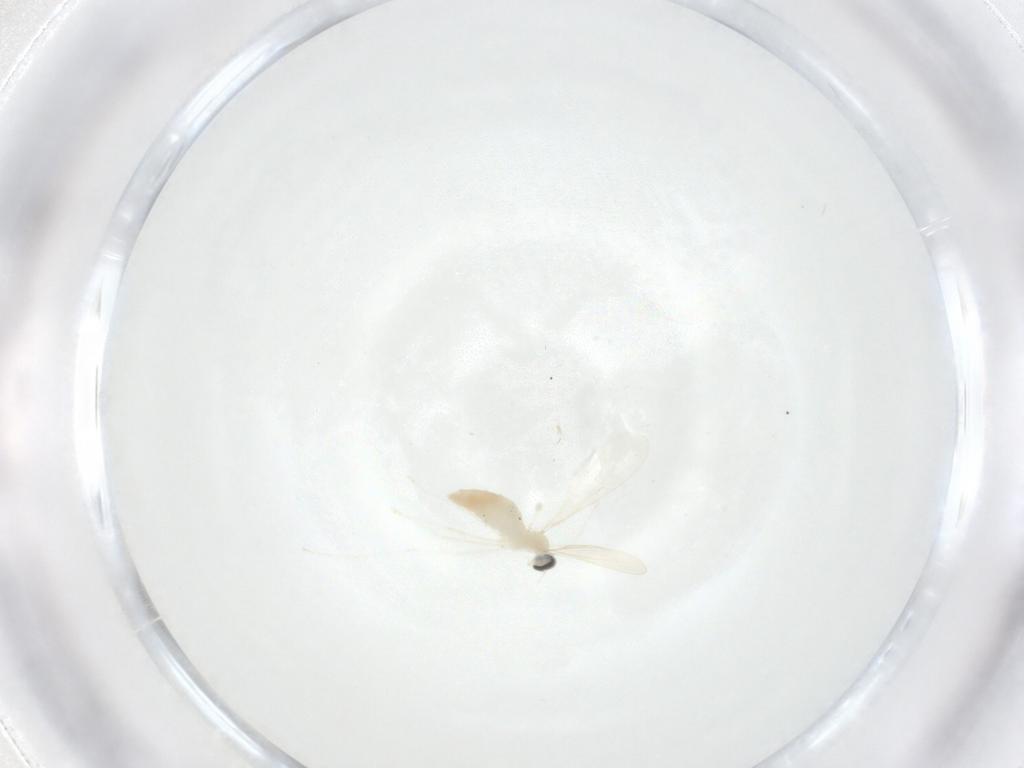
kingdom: Animalia
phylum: Arthropoda
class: Insecta
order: Diptera
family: Cecidomyiidae
